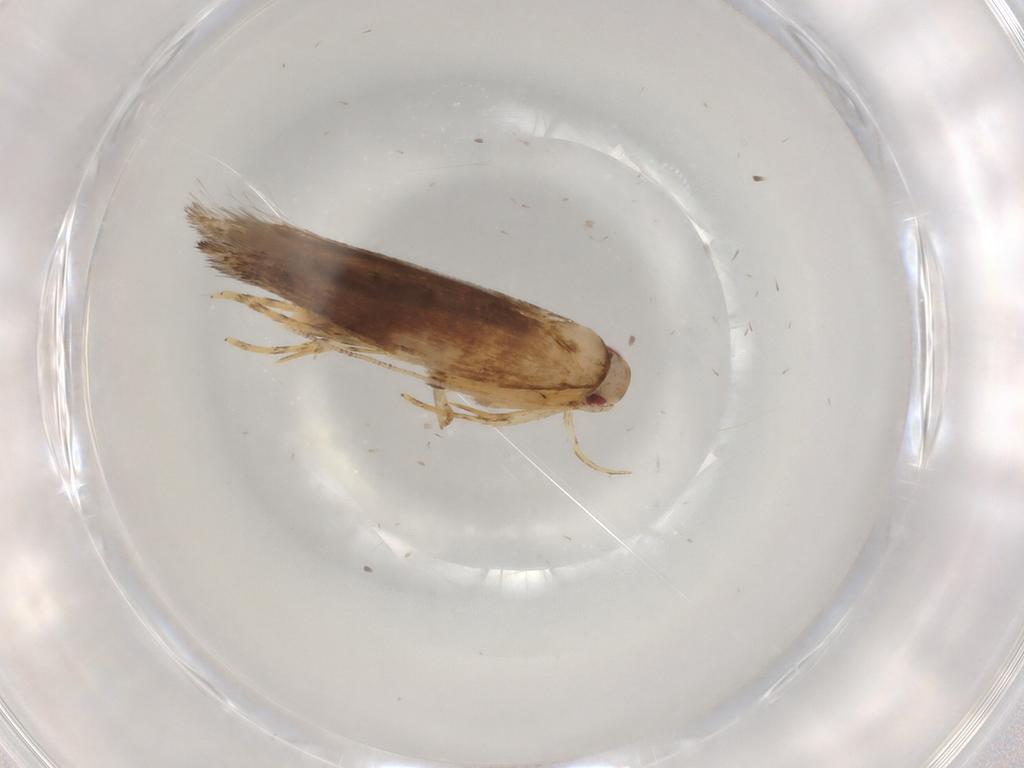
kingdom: Animalia
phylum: Arthropoda
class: Insecta
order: Lepidoptera
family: Cosmopterigidae
